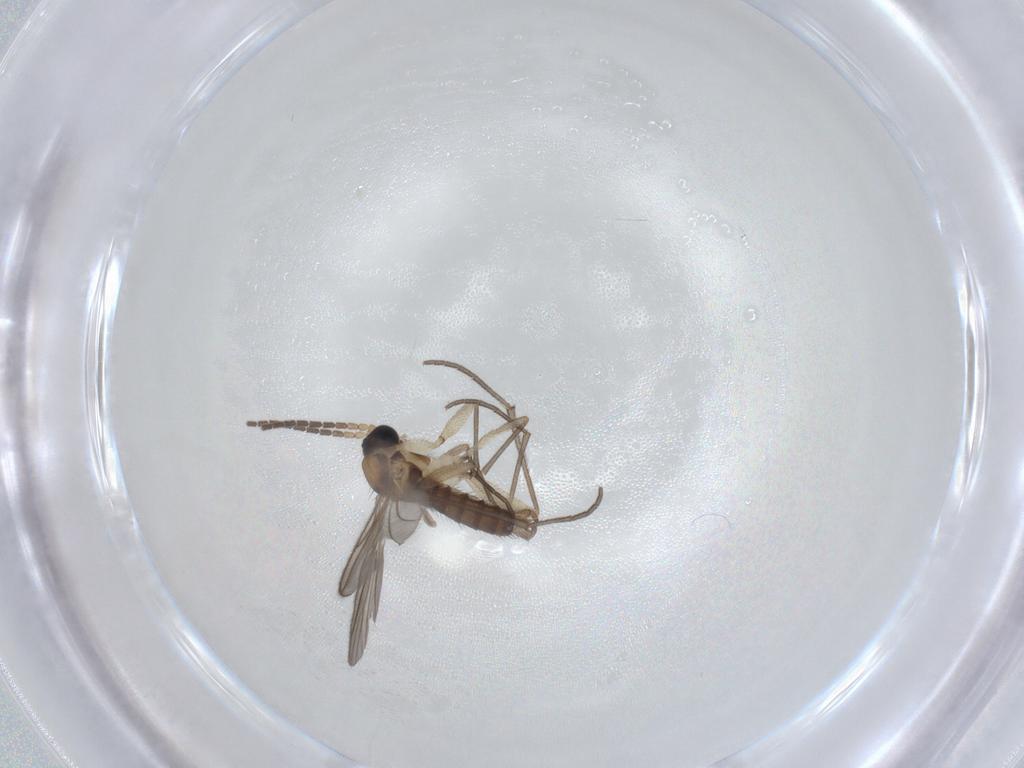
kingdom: Animalia
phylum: Arthropoda
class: Insecta
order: Diptera
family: Sciaridae
